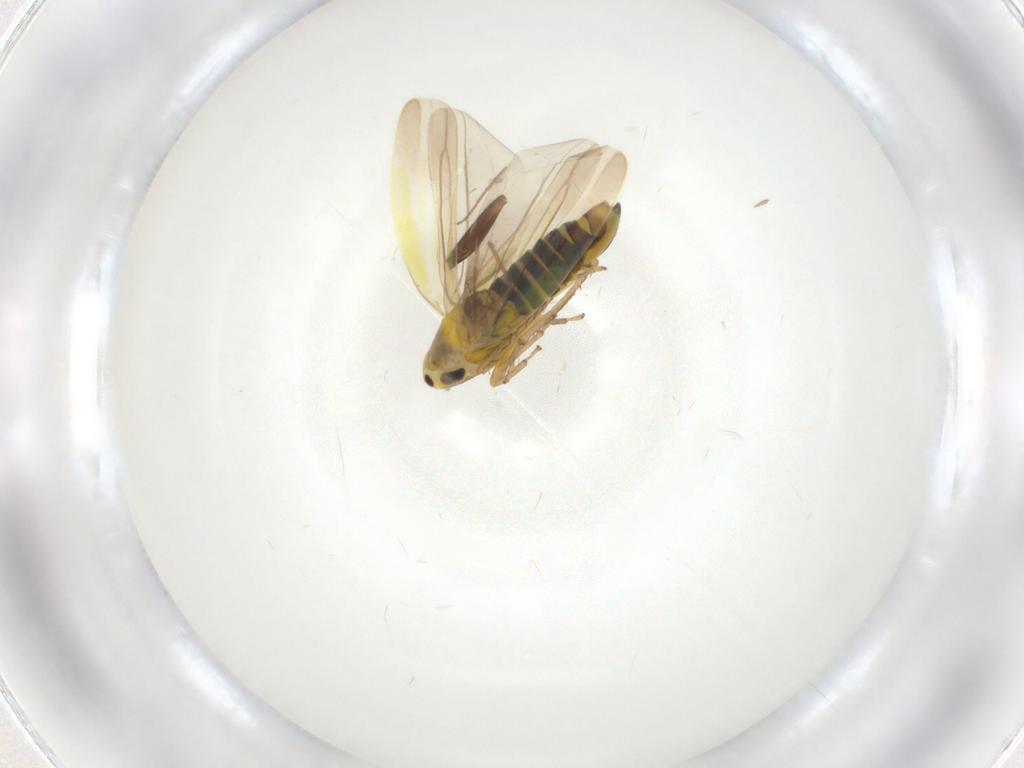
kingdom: Animalia
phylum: Arthropoda
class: Insecta
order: Hemiptera
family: Cicadellidae
